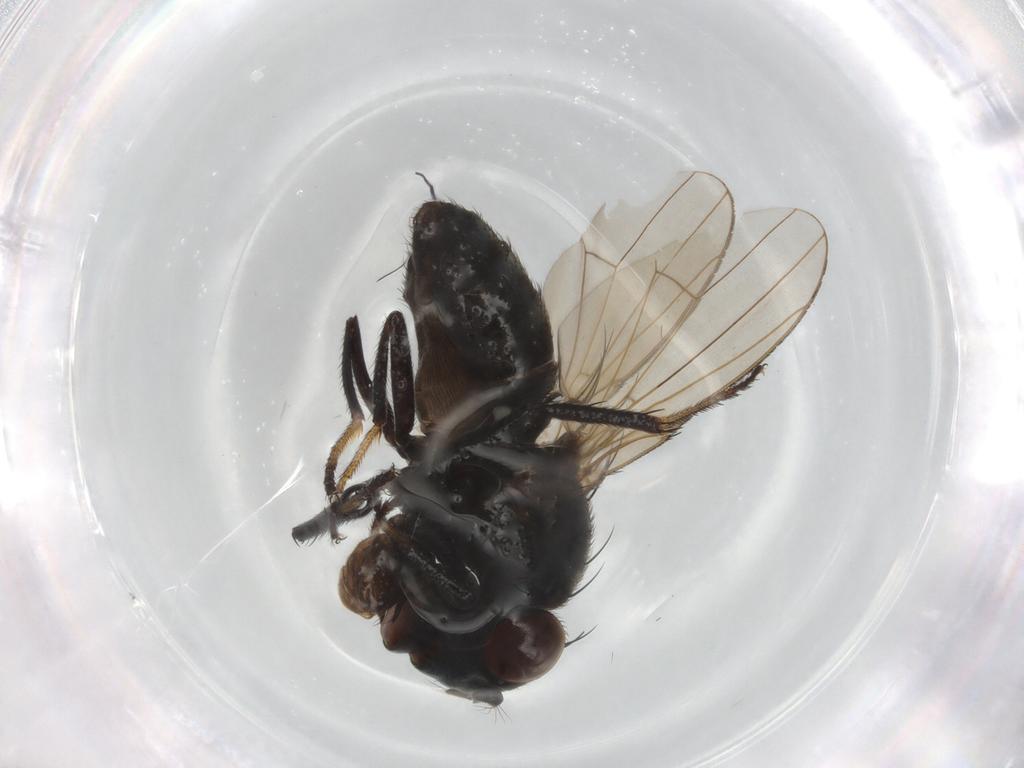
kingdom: Animalia
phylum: Arthropoda
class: Insecta
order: Diptera
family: Ephydridae
